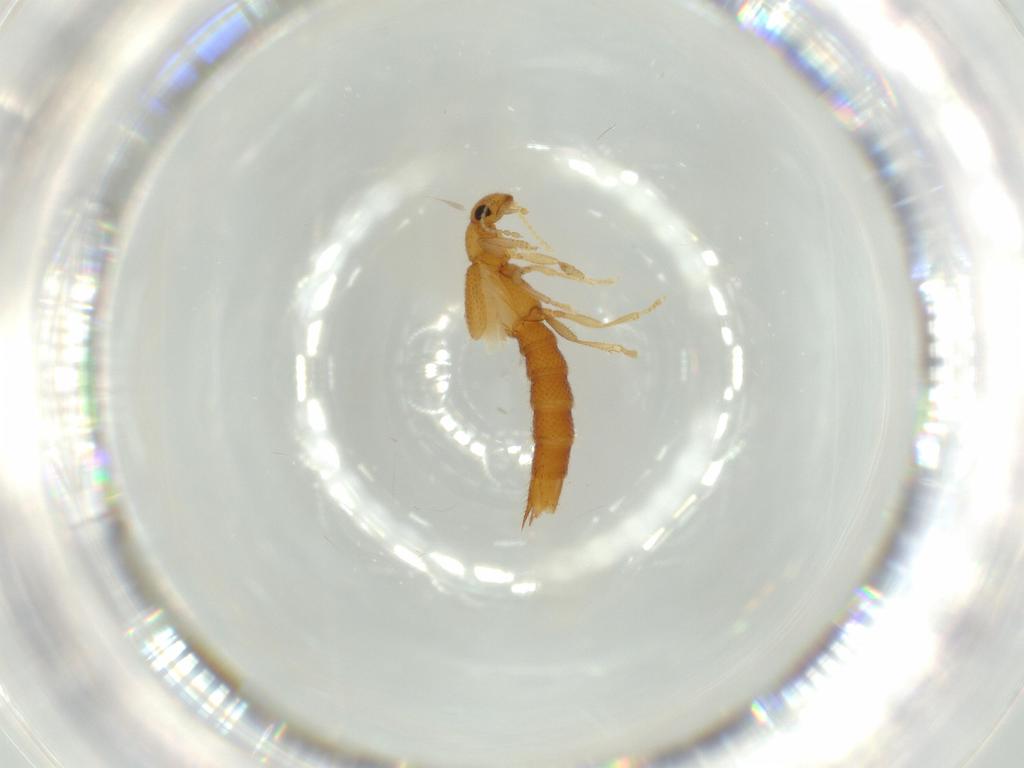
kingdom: Animalia
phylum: Arthropoda
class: Insecta
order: Coleoptera
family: Staphylinidae
